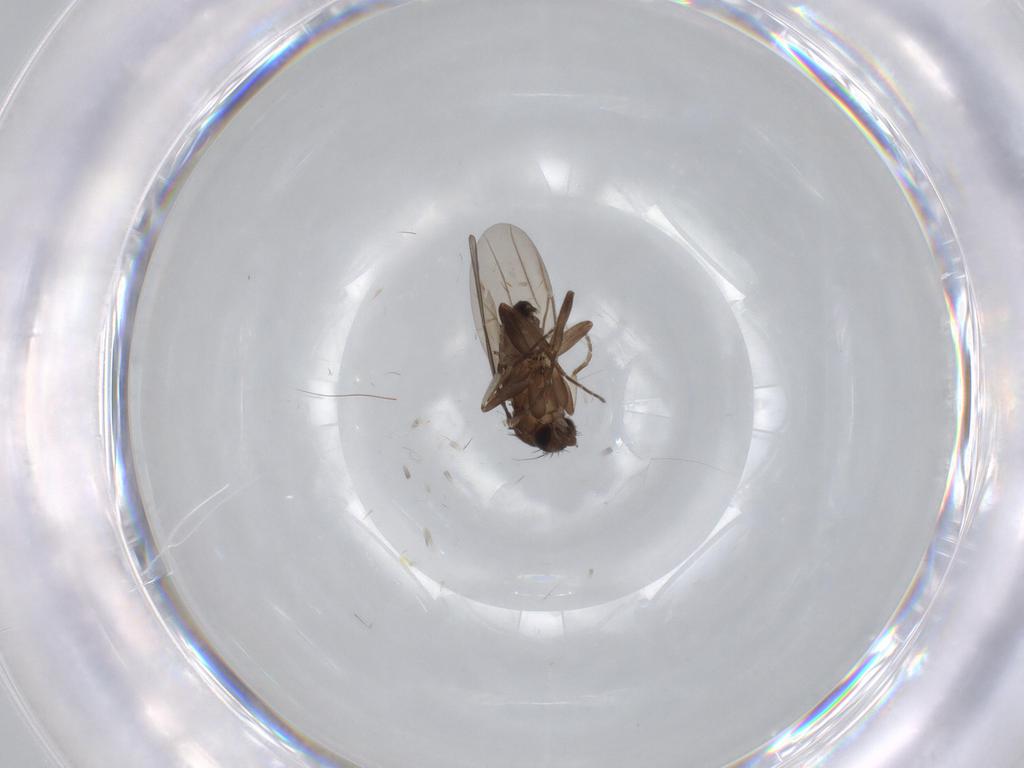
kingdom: Animalia
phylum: Arthropoda
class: Insecta
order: Diptera
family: Phoridae
